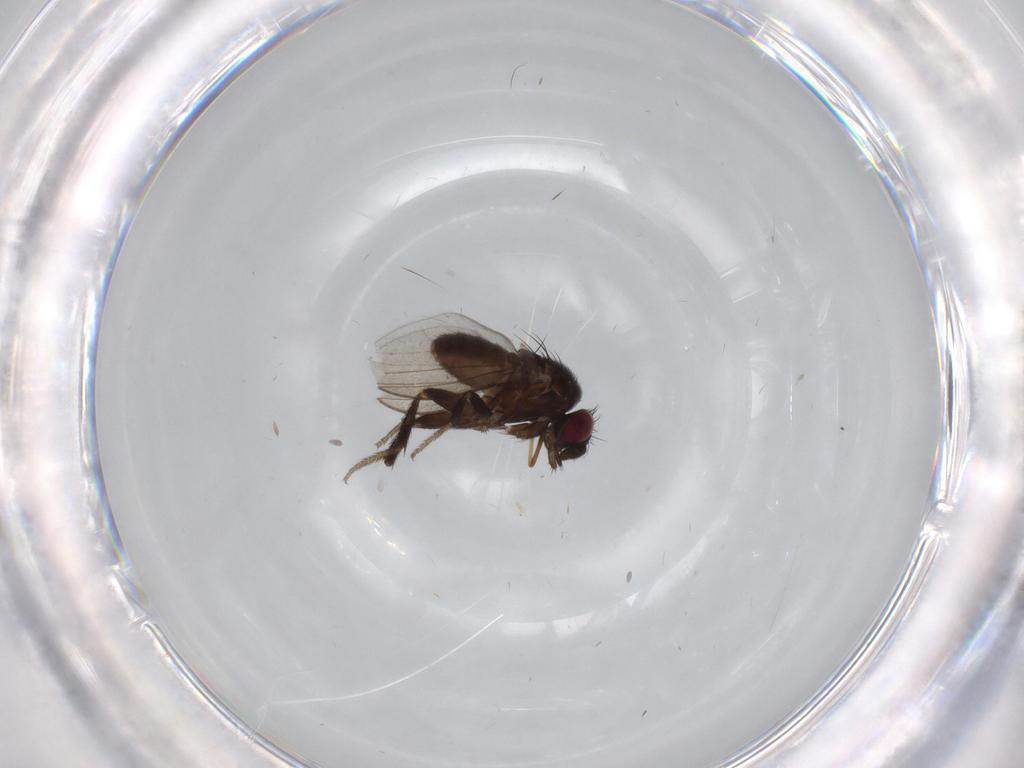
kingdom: Animalia
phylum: Arthropoda
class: Insecta
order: Diptera
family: Milichiidae
